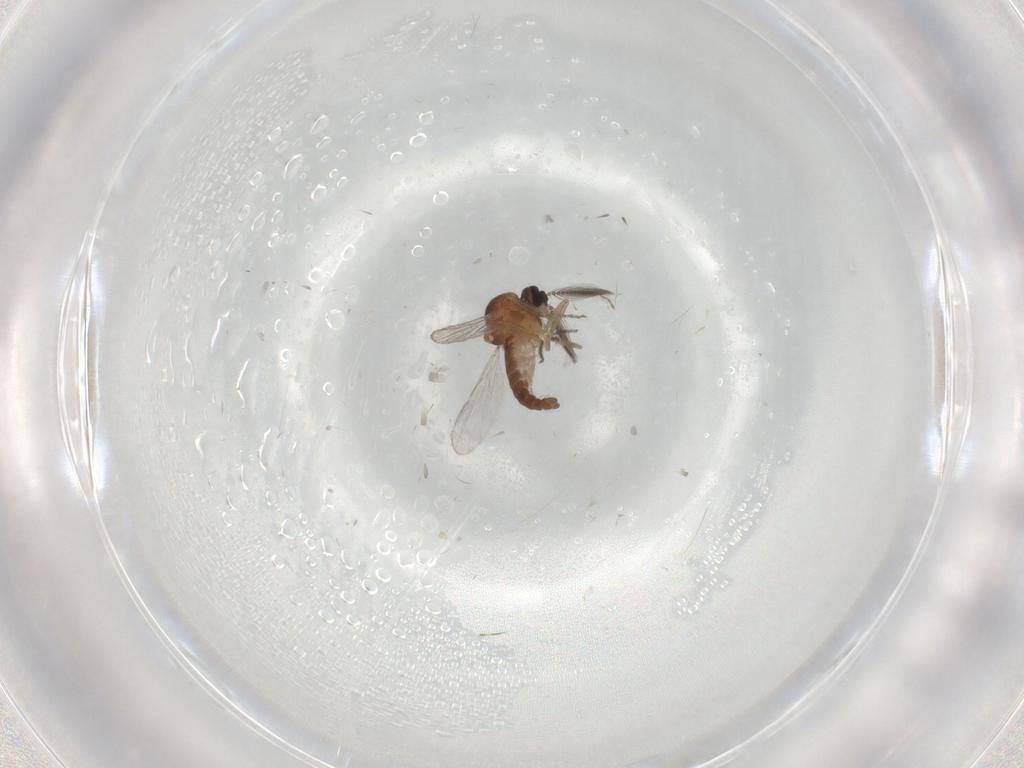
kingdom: Animalia
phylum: Arthropoda
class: Insecta
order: Diptera
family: Ceratopogonidae
